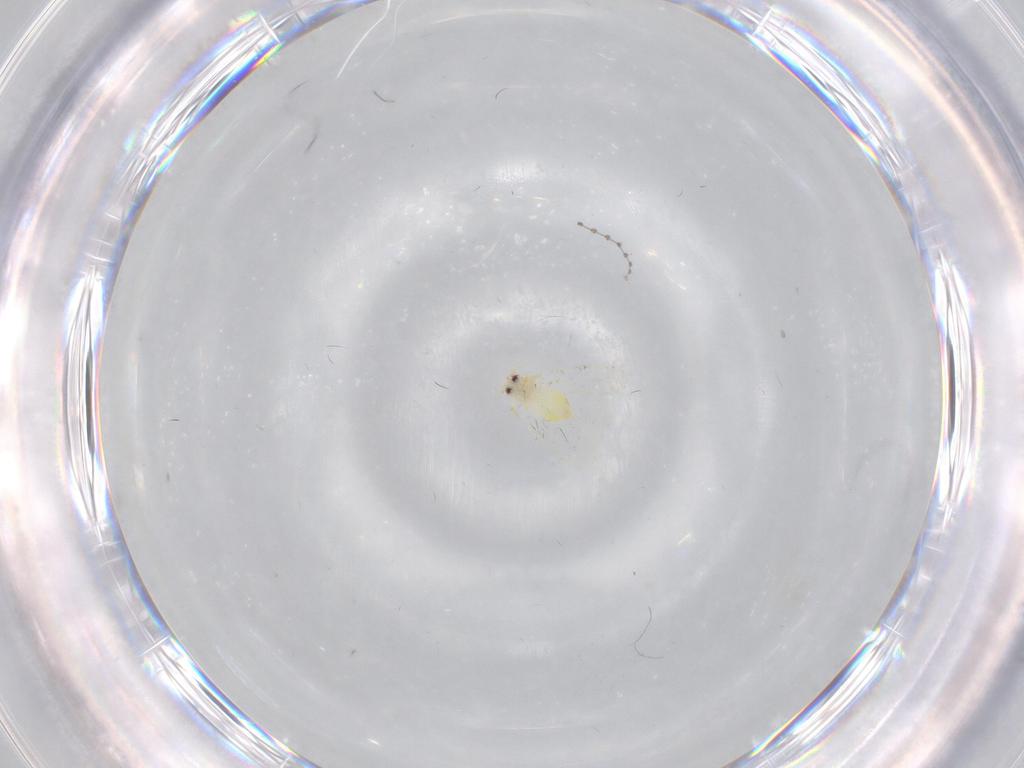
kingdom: Animalia
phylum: Arthropoda
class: Insecta
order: Hemiptera
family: Aleyrodidae
